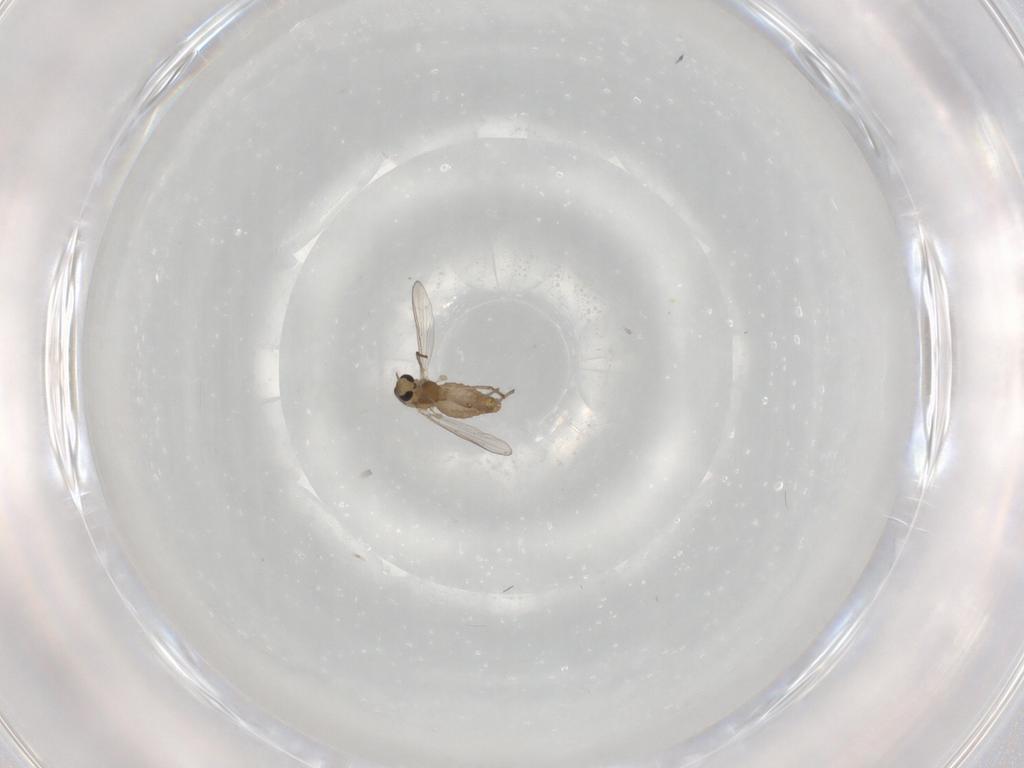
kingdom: Animalia
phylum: Arthropoda
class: Insecta
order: Diptera
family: Chironomidae
